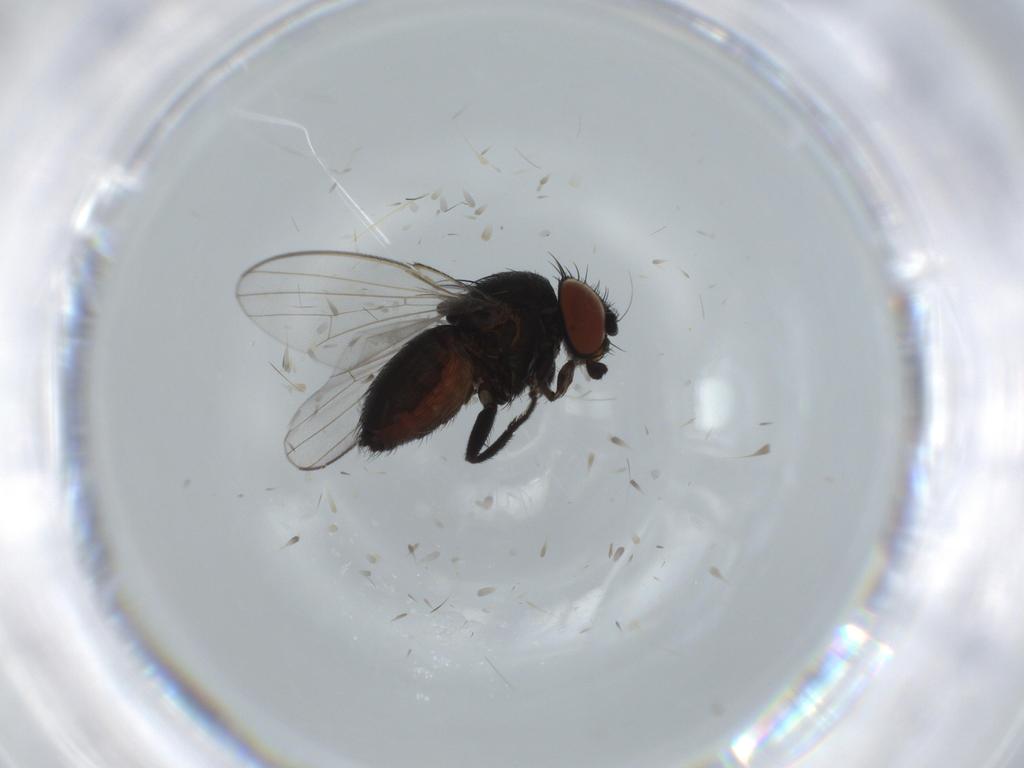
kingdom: Animalia
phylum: Arthropoda
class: Insecta
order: Diptera
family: Milichiidae
